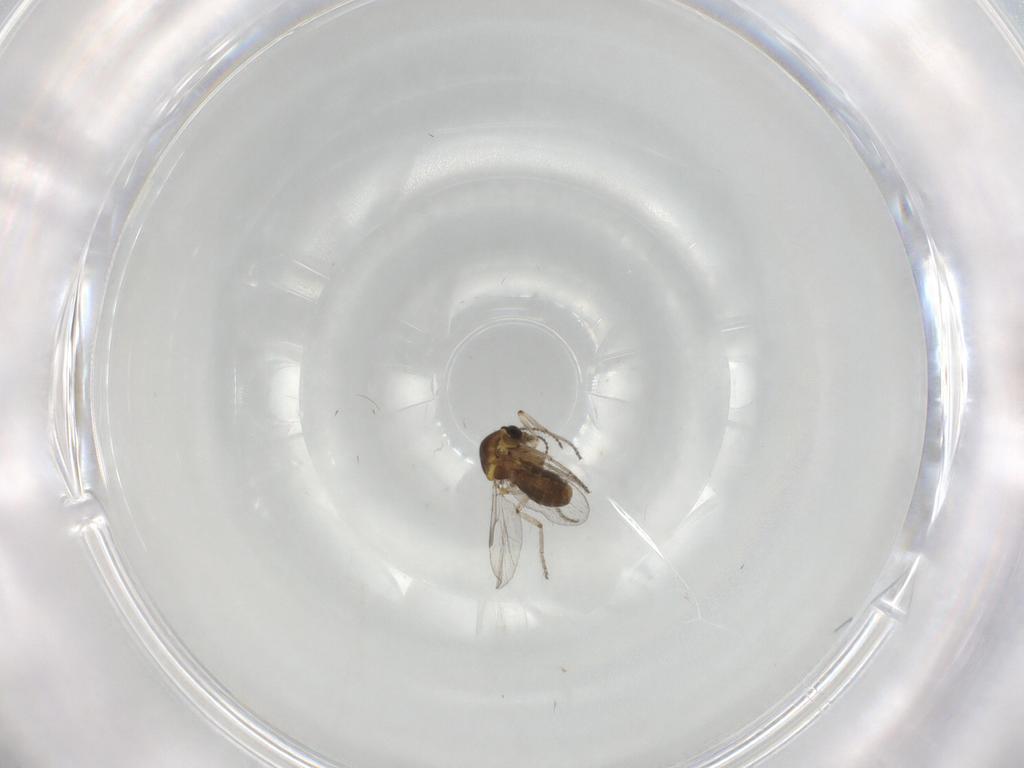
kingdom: Animalia
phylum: Arthropoda
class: Insecta
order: Diptera
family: Ceratopogonidae
